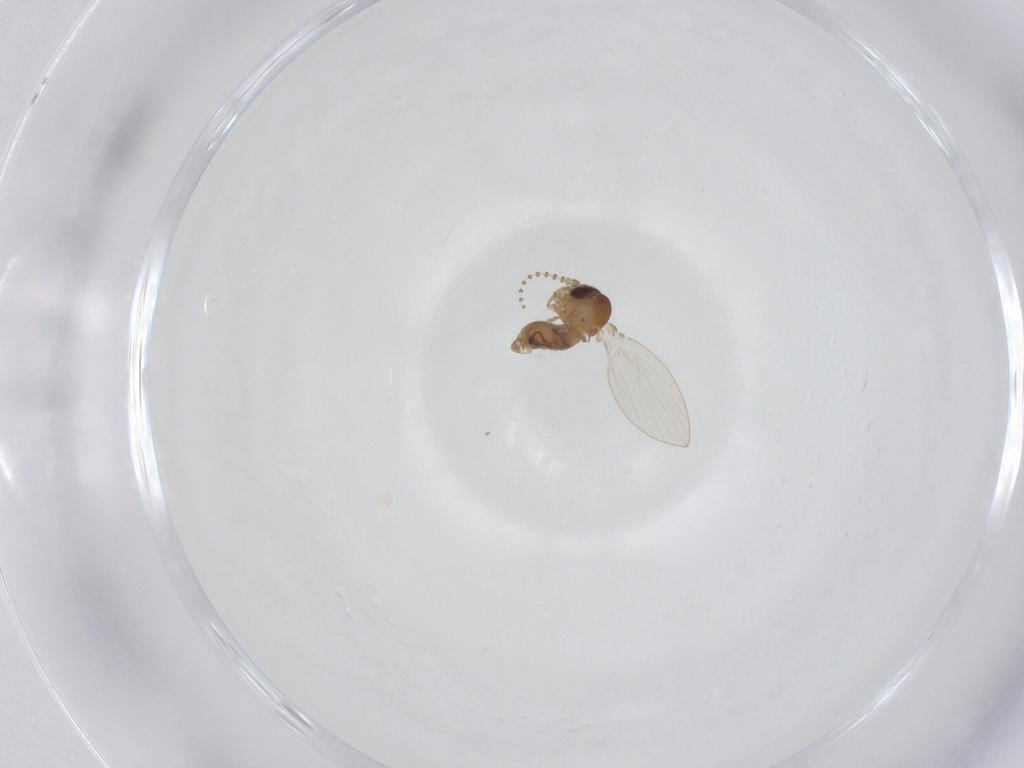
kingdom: Animalia
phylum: Arthropoda
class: Insecta
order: Diptera
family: Psychodidae
